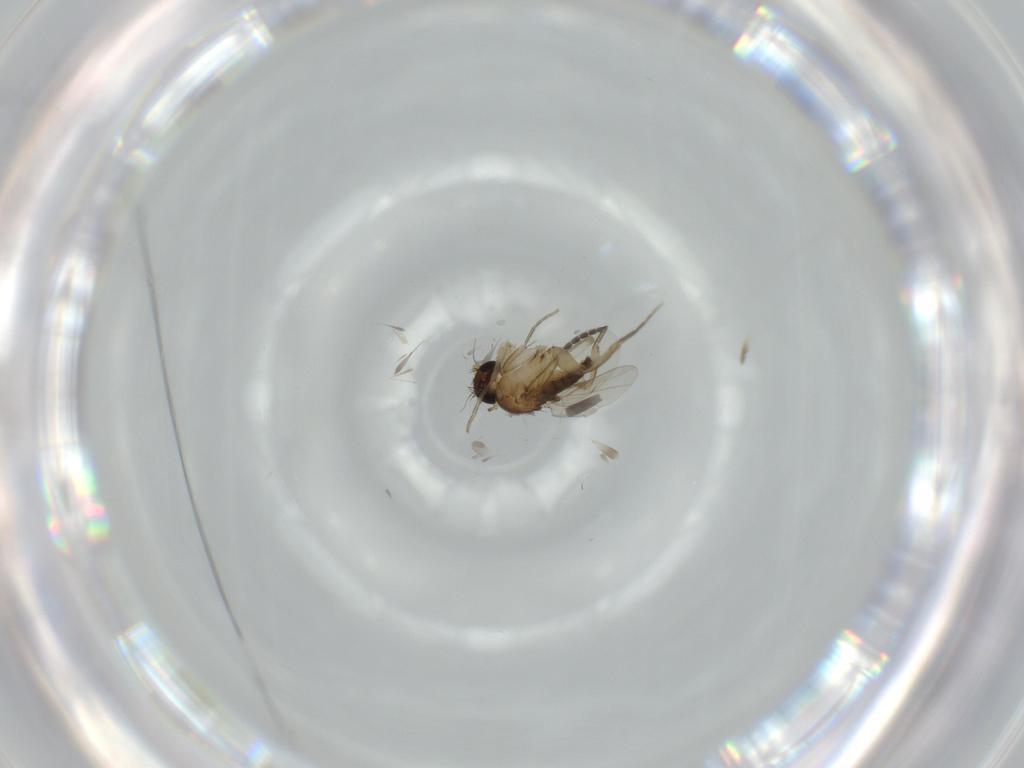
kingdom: Animalia
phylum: Arthropoda
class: Insecta
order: Diptera
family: Phoridae
